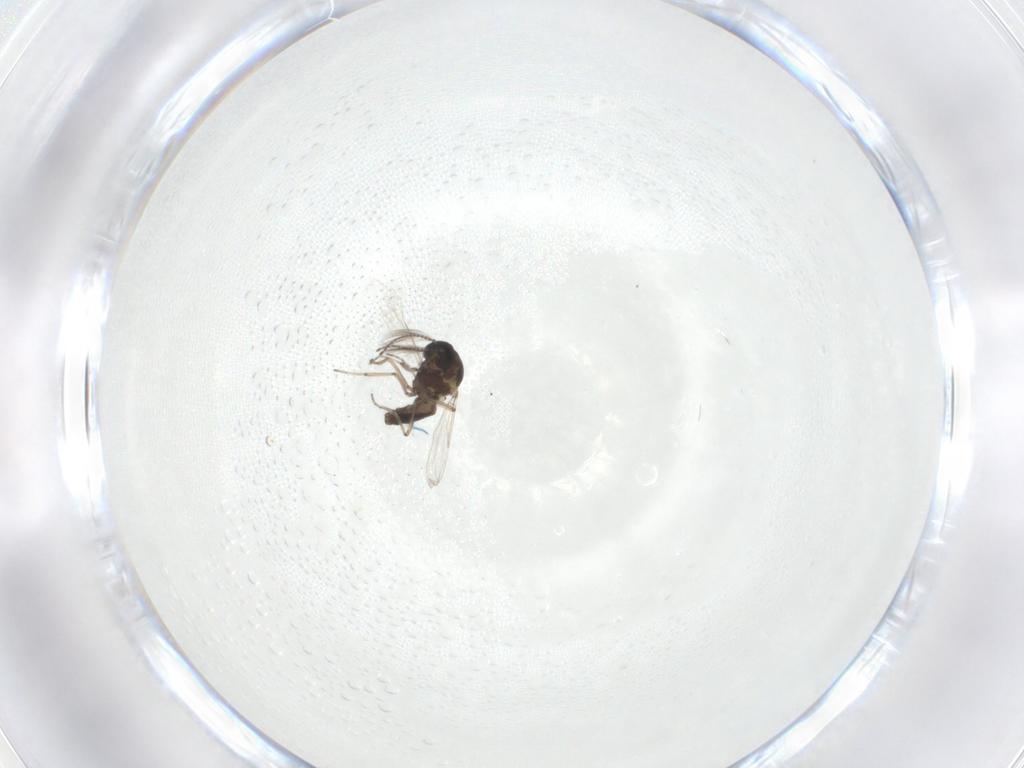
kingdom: Animalia
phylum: Arthropoda
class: Insecta
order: Diptera
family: Ceratopogonidae
